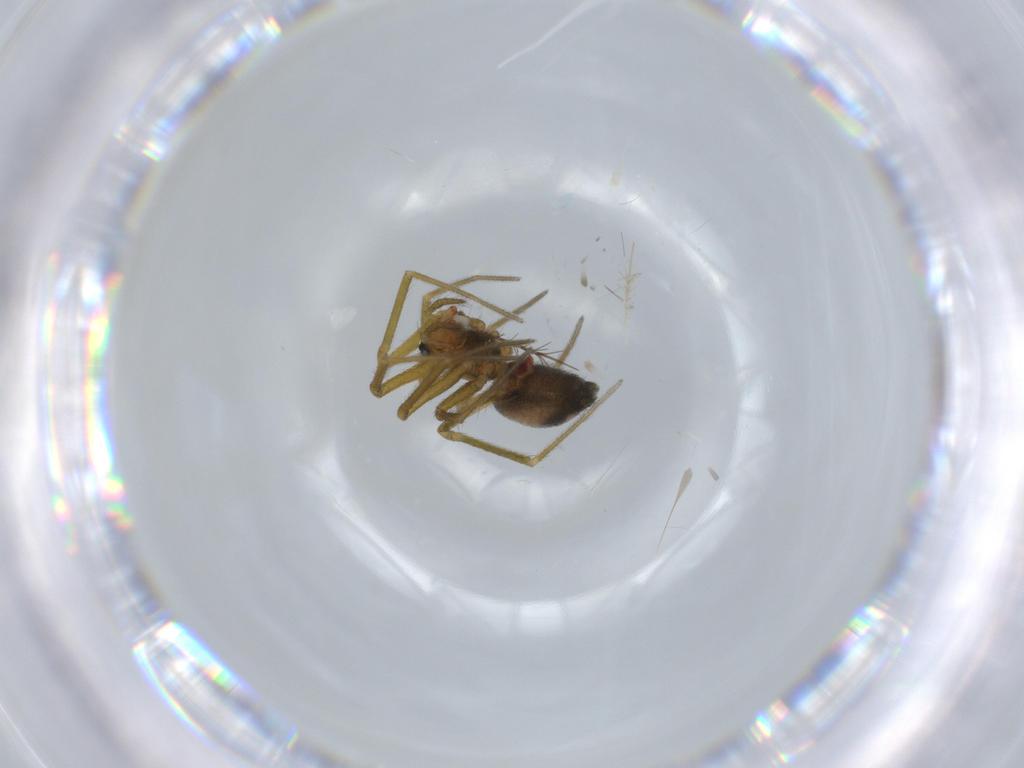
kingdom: Animalia
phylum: Arthropoda
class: Arachnida
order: Araneae
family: Linyphiidae
